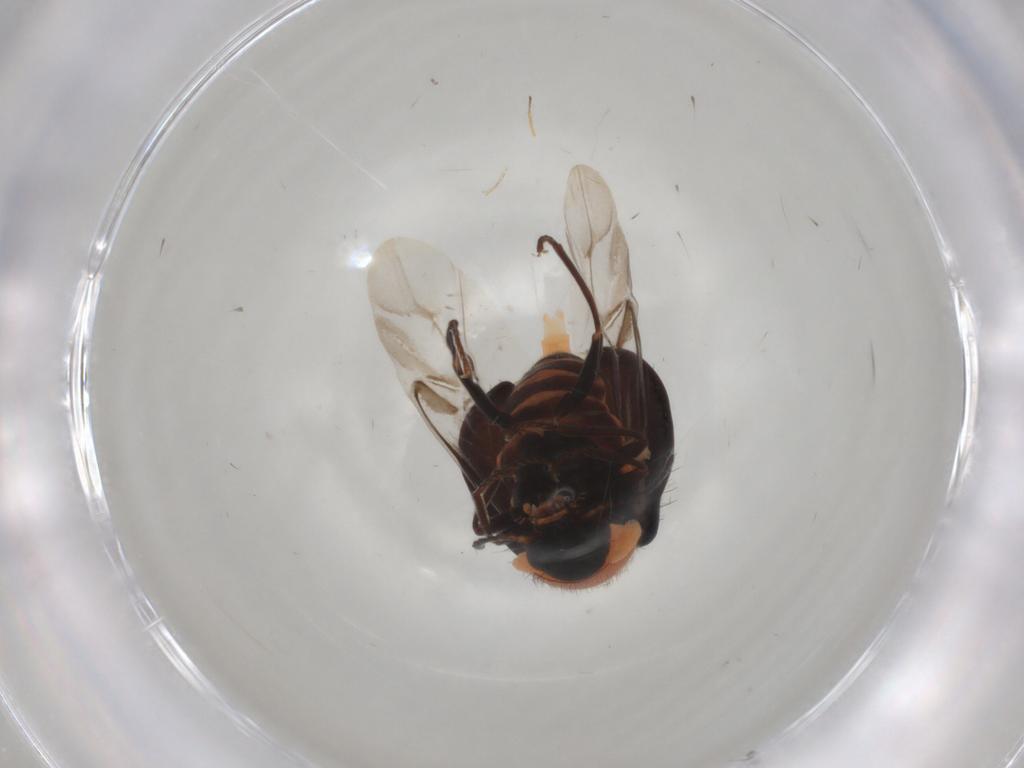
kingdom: Animalia
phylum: Arthropoda
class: Insecta
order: Coleoptera
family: Melyridae
